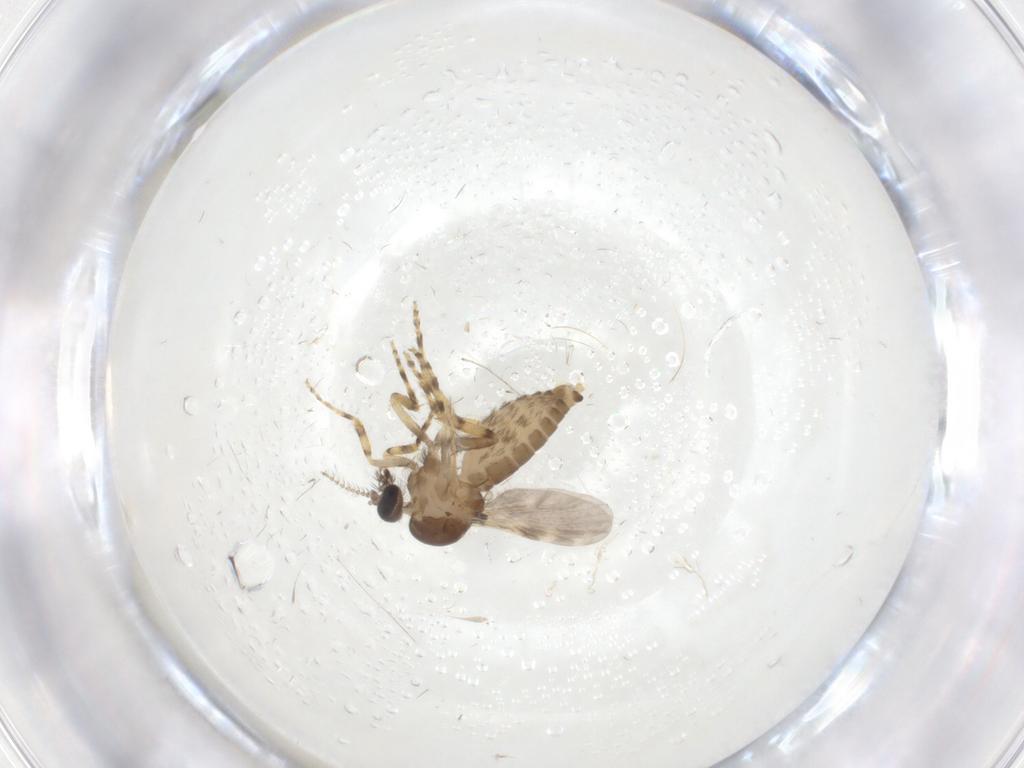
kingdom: Animalia
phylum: Arthropoda
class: Insecta
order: Diptera
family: Ceratopogonidae
